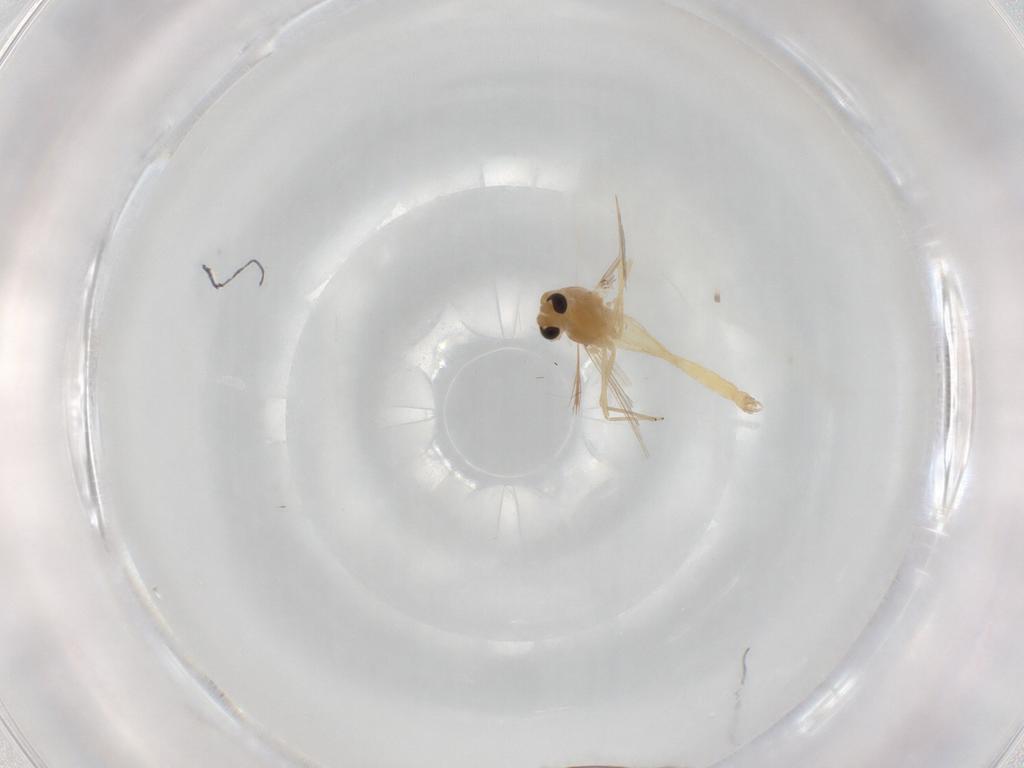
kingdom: Animalia
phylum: Arthropoda
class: Insecta
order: Diptera
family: Chironomidae
